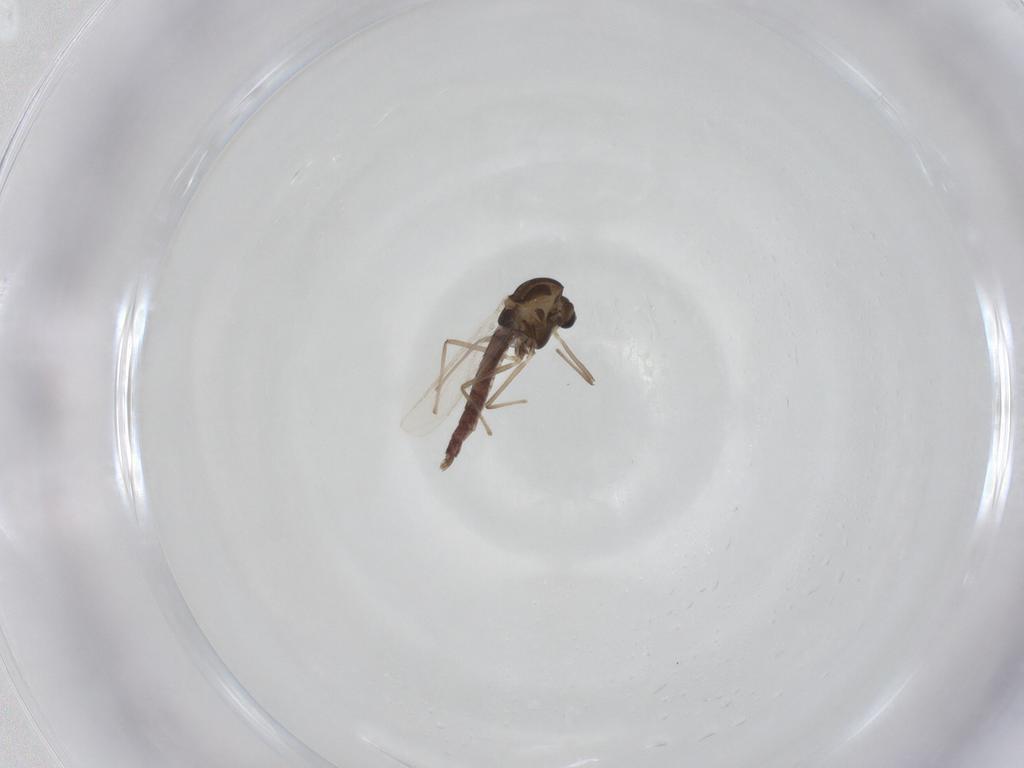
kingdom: Animalia
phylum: Arthropoda
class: Insecta
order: Diptera
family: Chironomidae
